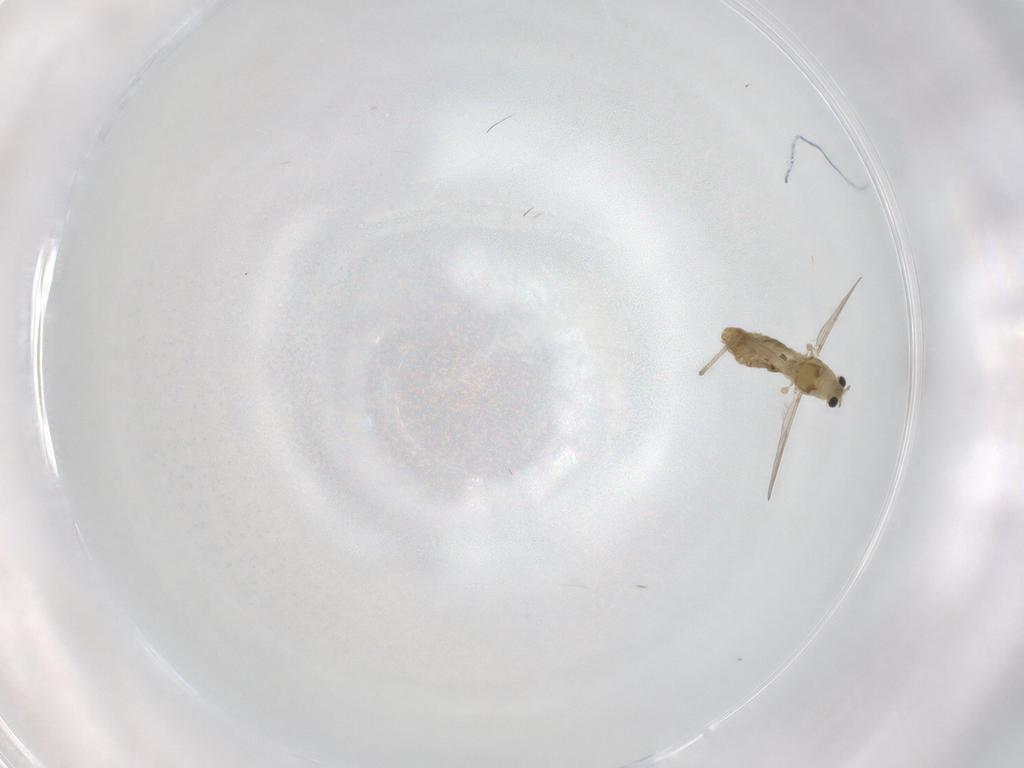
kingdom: Animalia
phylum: Arthropoda
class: Insecta
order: Diptera
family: Chironomidae
